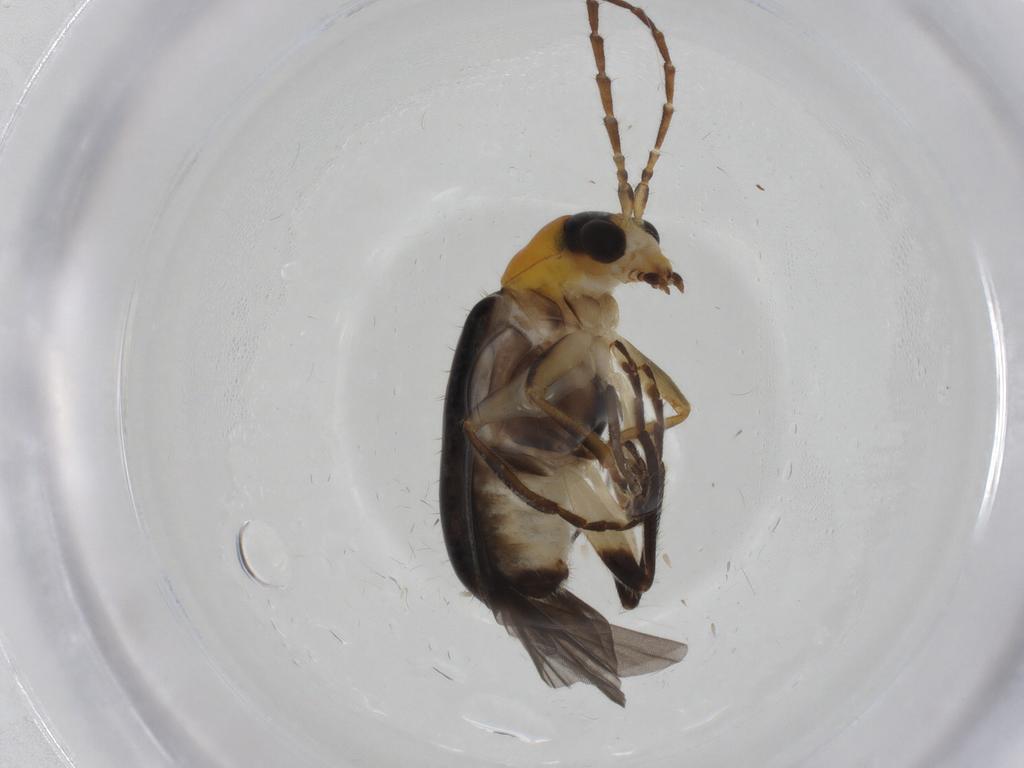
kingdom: Animalia
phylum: Arthropoda
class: Insecta
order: Coleoptera
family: Chrysomelidae
